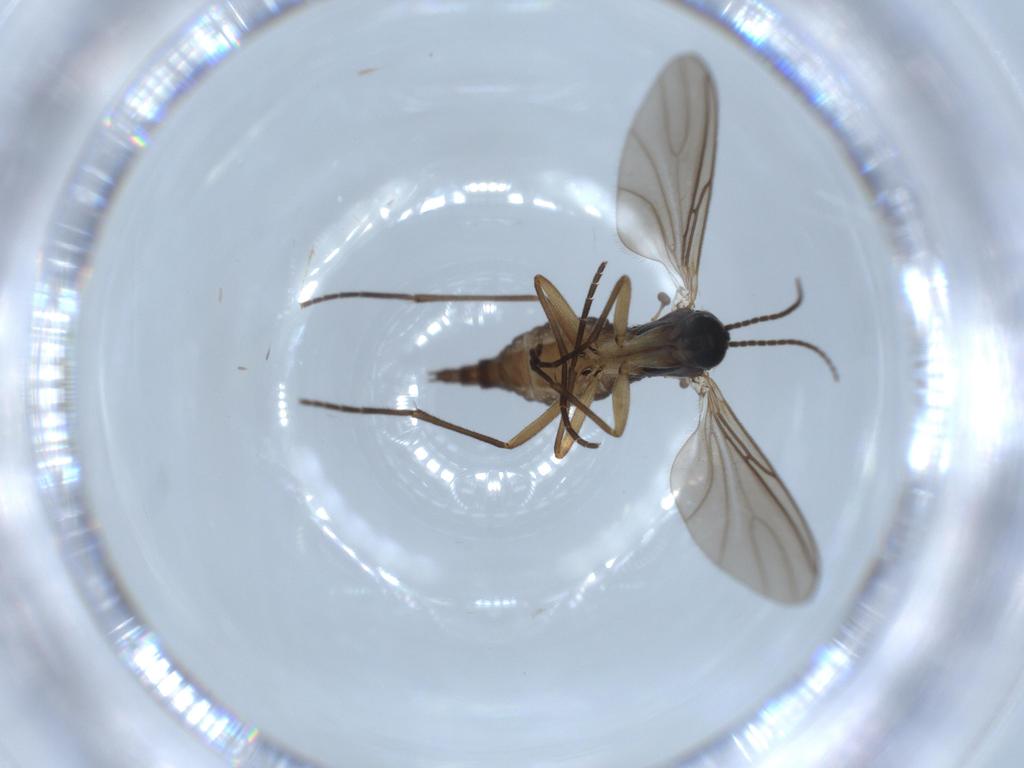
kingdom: Animalia
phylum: Arthropoda
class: Insecta
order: Diptera
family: Sciaridae
